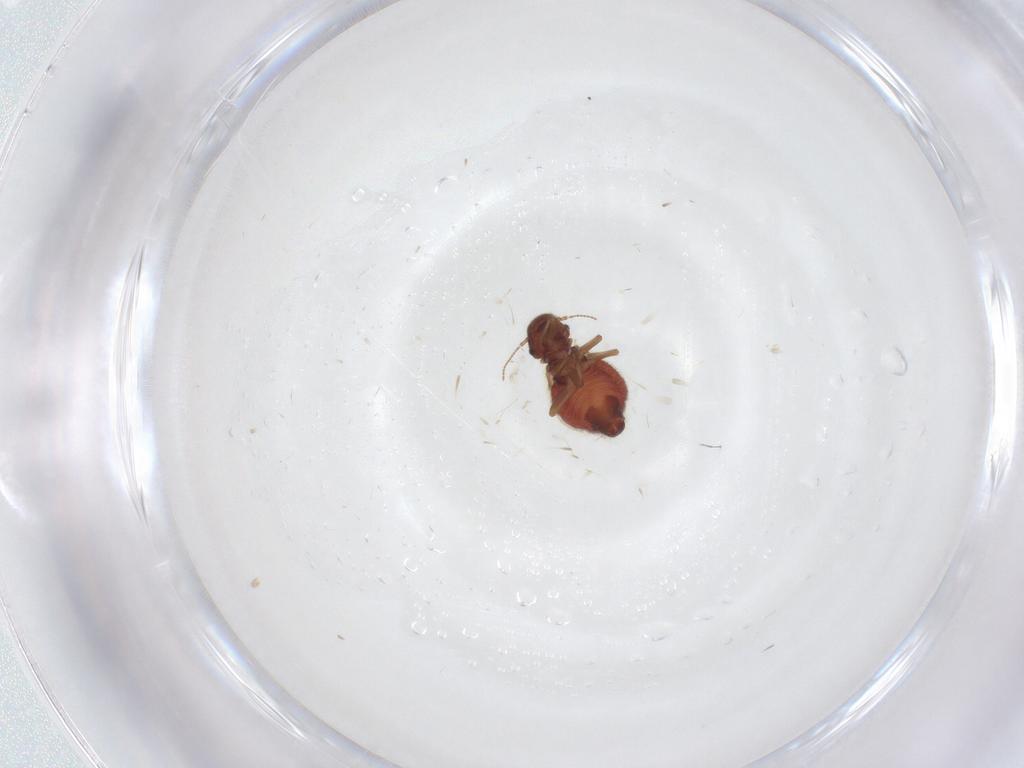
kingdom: Animalia
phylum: Arthropoda
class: Insecta
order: Psocodea
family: Archipsocidae
